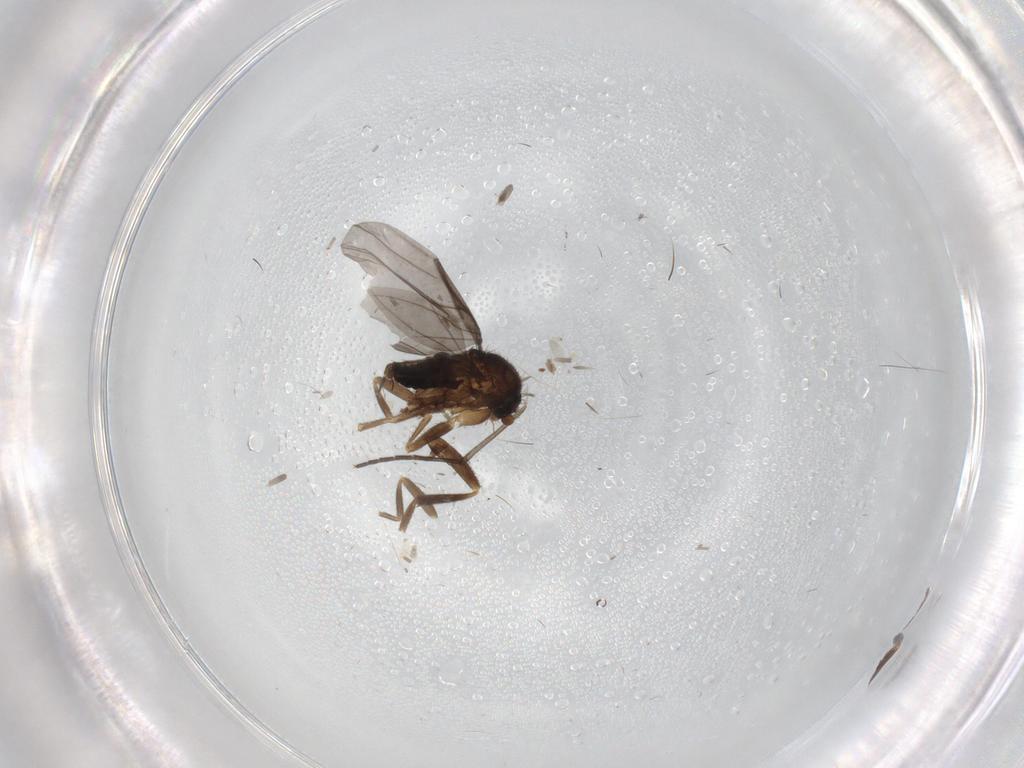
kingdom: Animalia
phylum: Arthropoda
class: Insecta
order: Diptera
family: Phoridae
